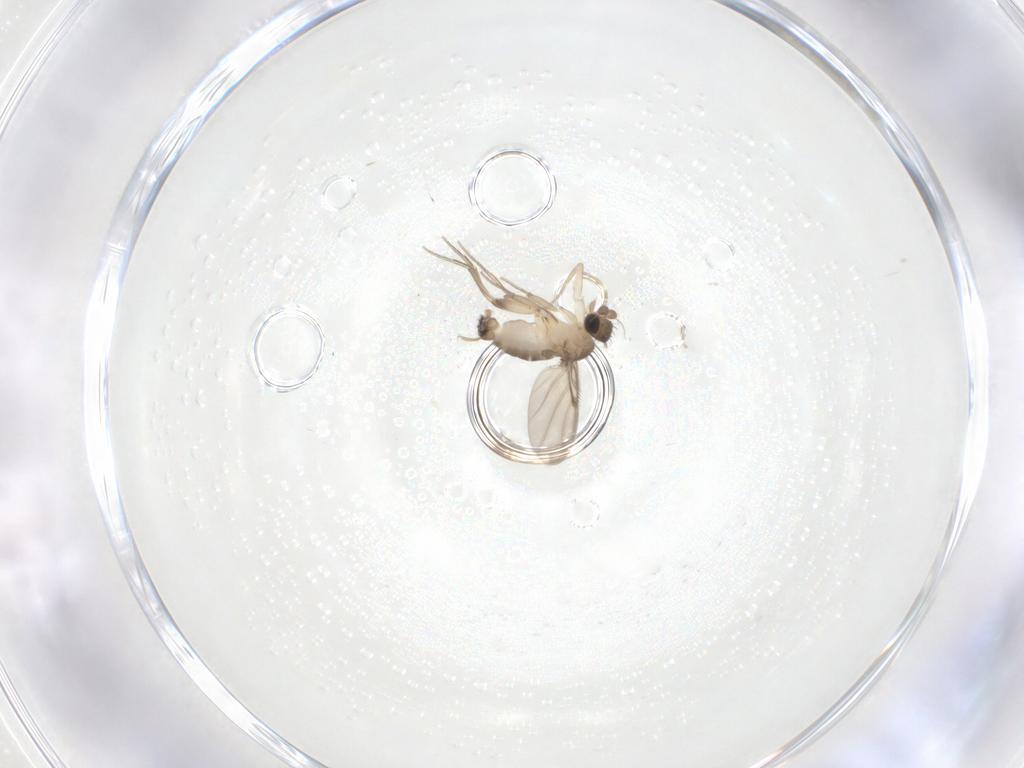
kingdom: Animalia
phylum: Arthropoda
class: Insecta
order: Diptera
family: Phoridae
